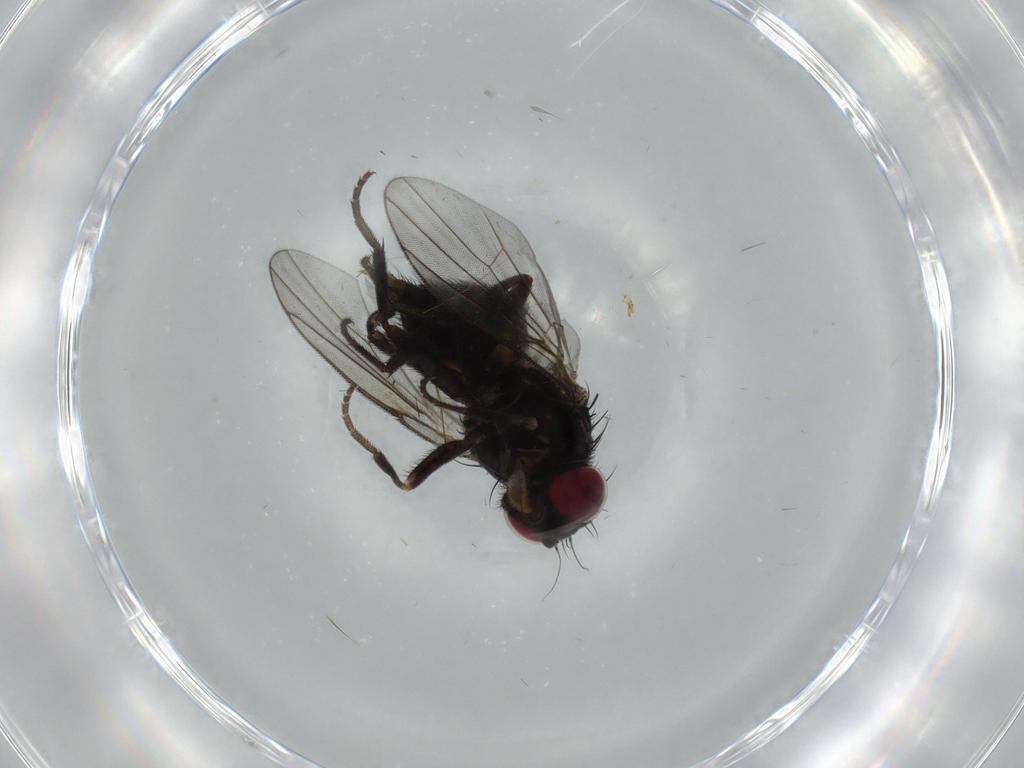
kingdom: Animalia
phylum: Arthropoda
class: Insecta
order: Diptera
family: Agromyzidae
